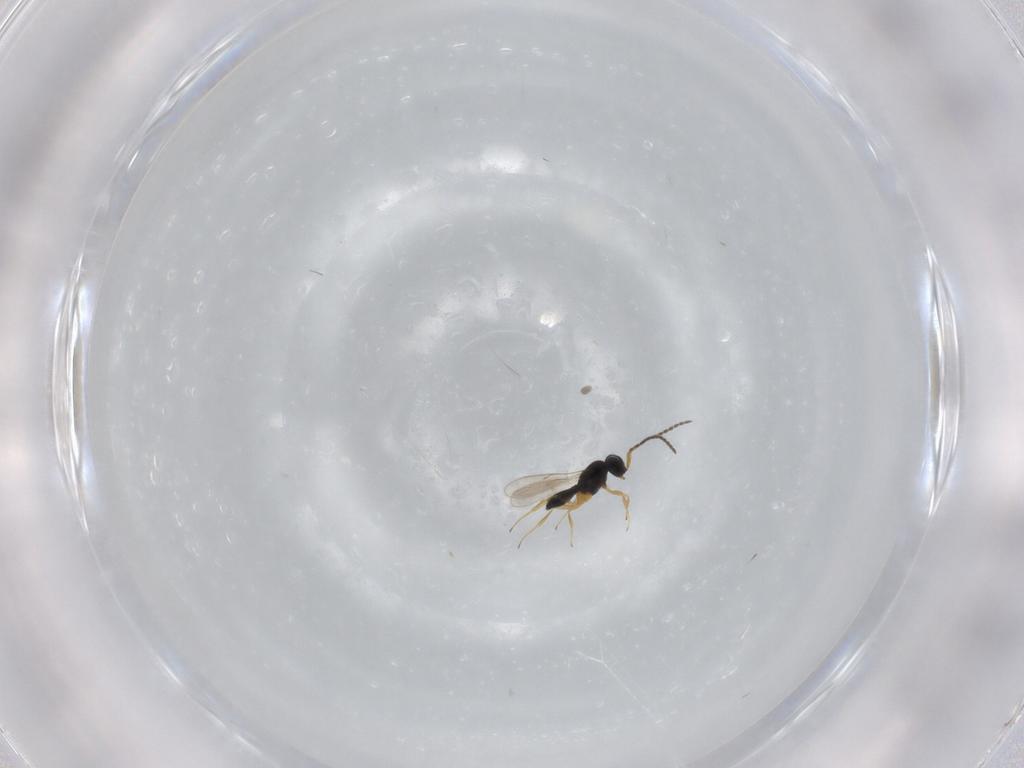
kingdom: Animalia
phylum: Arthropoda
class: Insecta
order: Hymenoptera
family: Scelionidae
